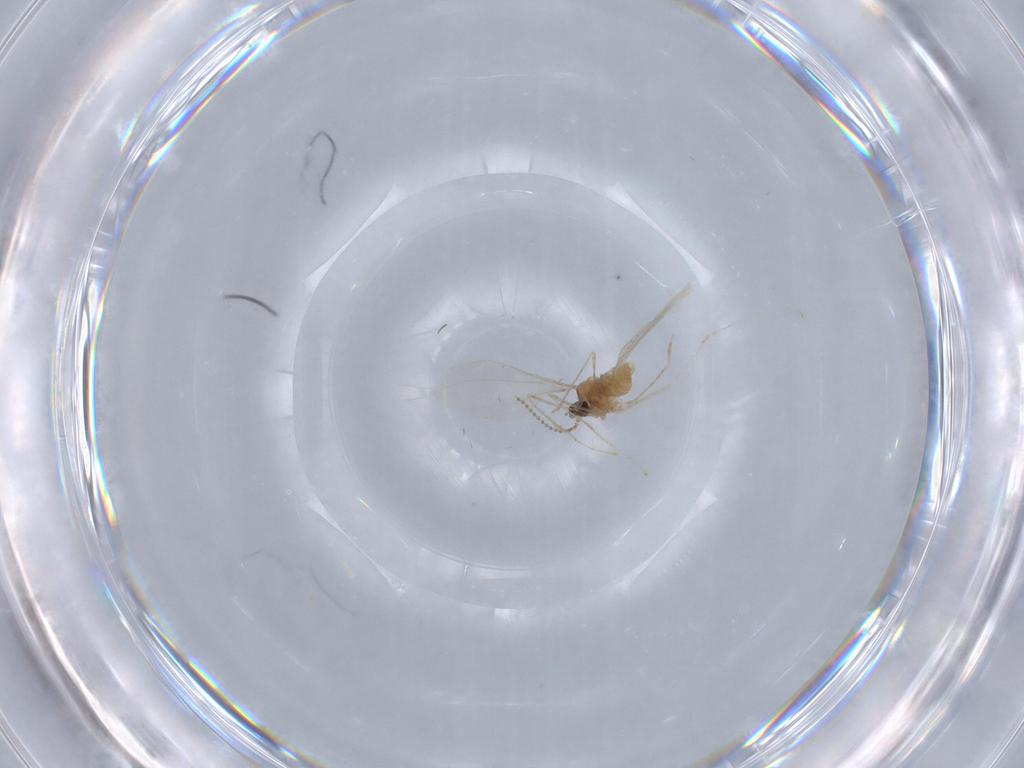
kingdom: Animalia
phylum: Arthropoda
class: Insecta
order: Diptera
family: Cecidomyiidae
